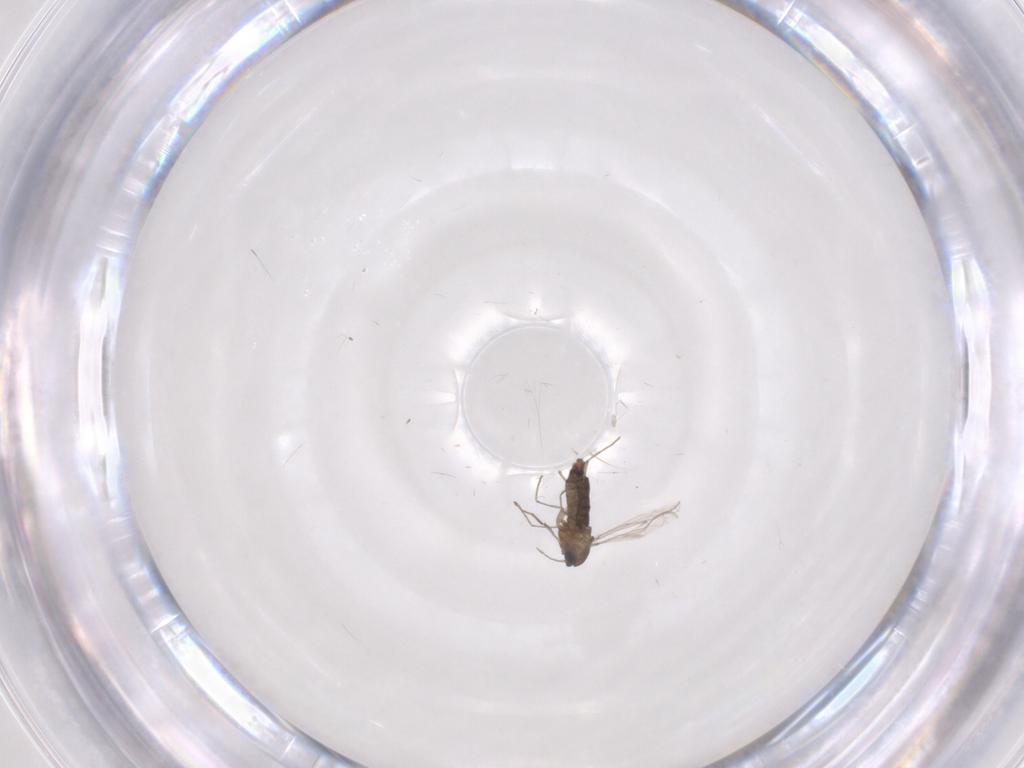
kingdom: Animalia
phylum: Arthropoda
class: Insecta
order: Diptera
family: Chironomidae
